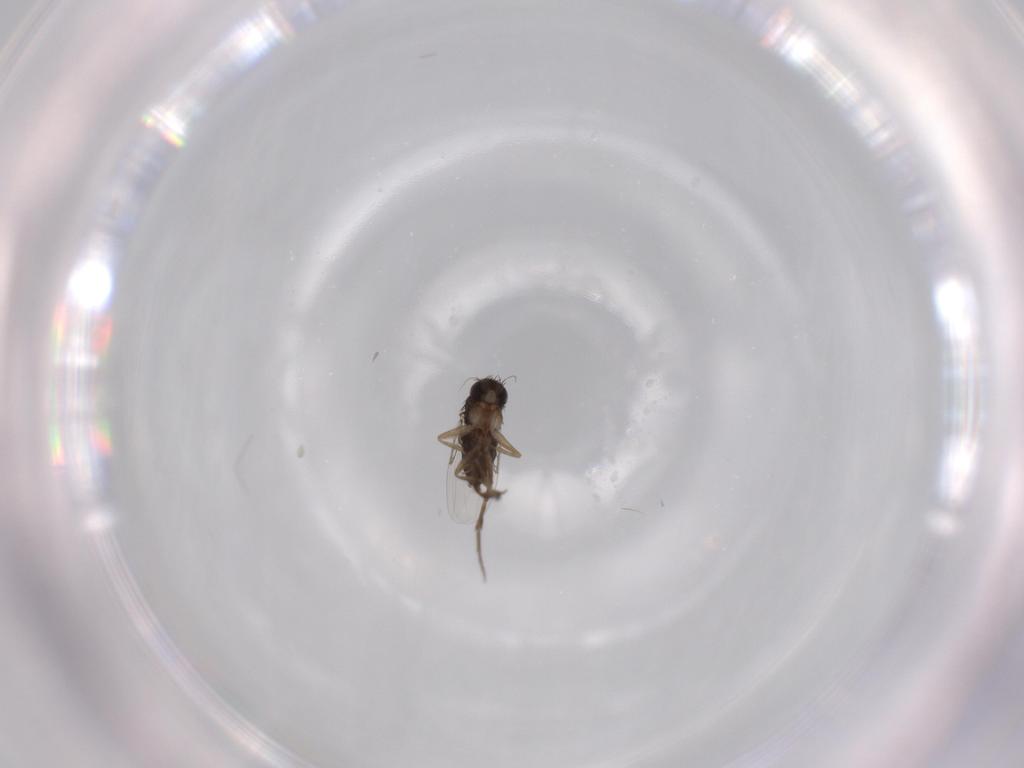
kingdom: Animalia
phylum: Arthropoda
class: Insecta
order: Diptera
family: Phoridae
